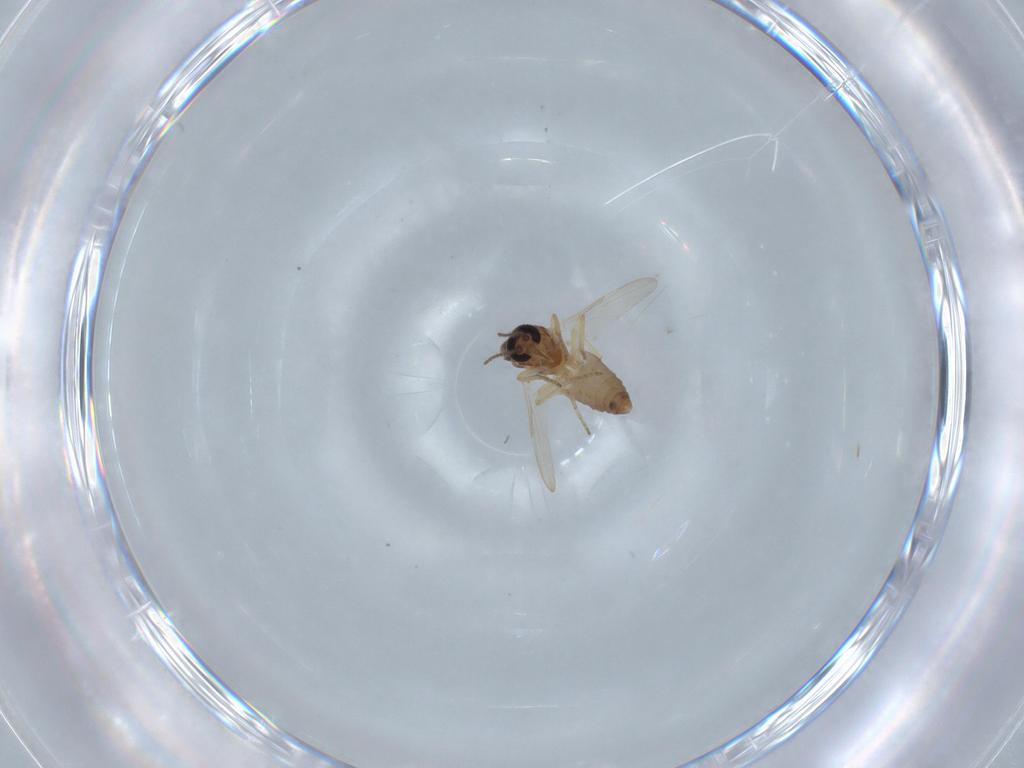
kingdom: Animalia
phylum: Arthropoda
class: Insecta
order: Diptera
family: Ceratopogonidae
